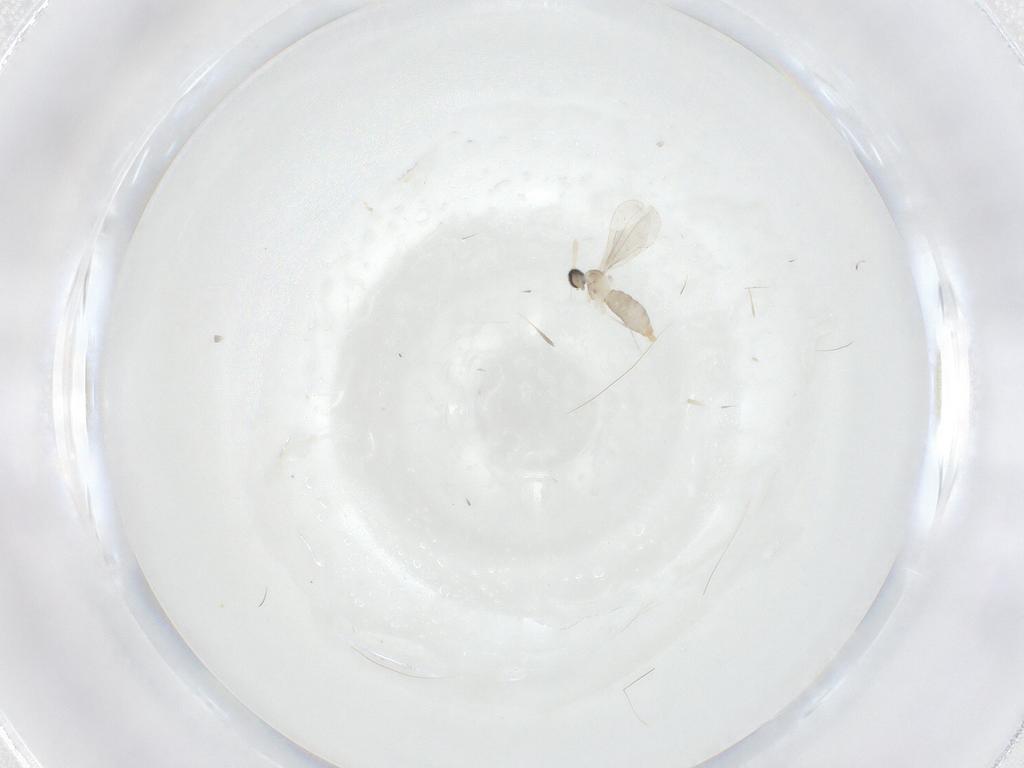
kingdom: Animalia
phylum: Arthropoda
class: Insecta
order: Diptera
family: Cecidomyiidae
